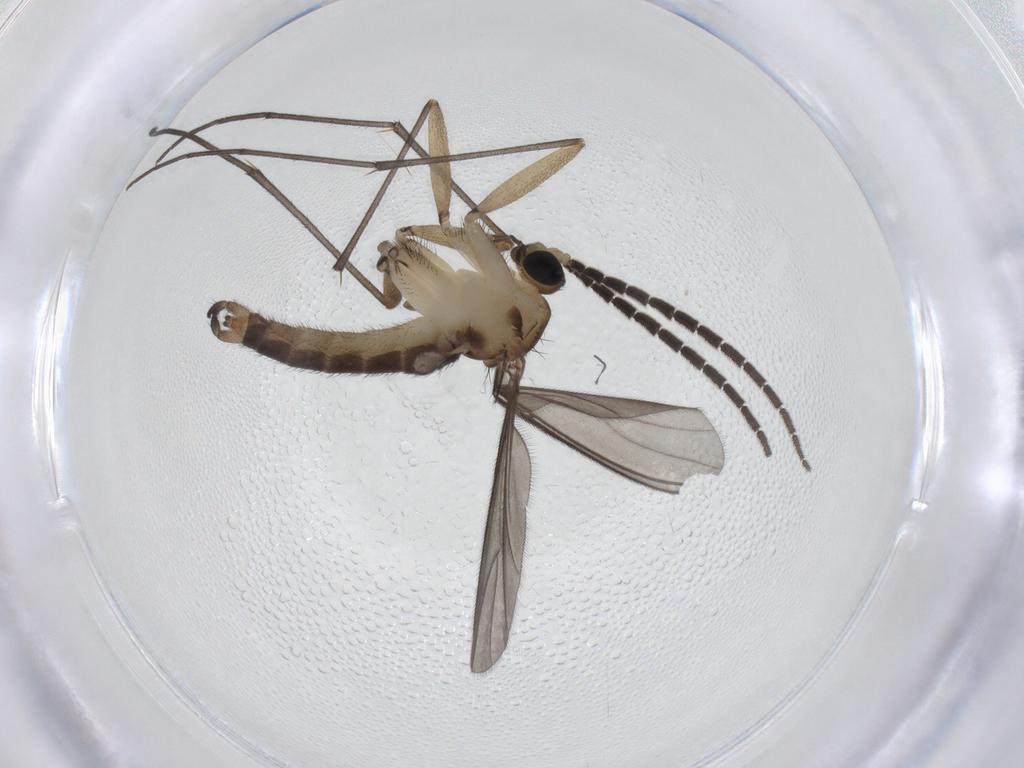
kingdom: Animalia
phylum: Arthropoda
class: Insecta
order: Diptera
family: Sciaridae
